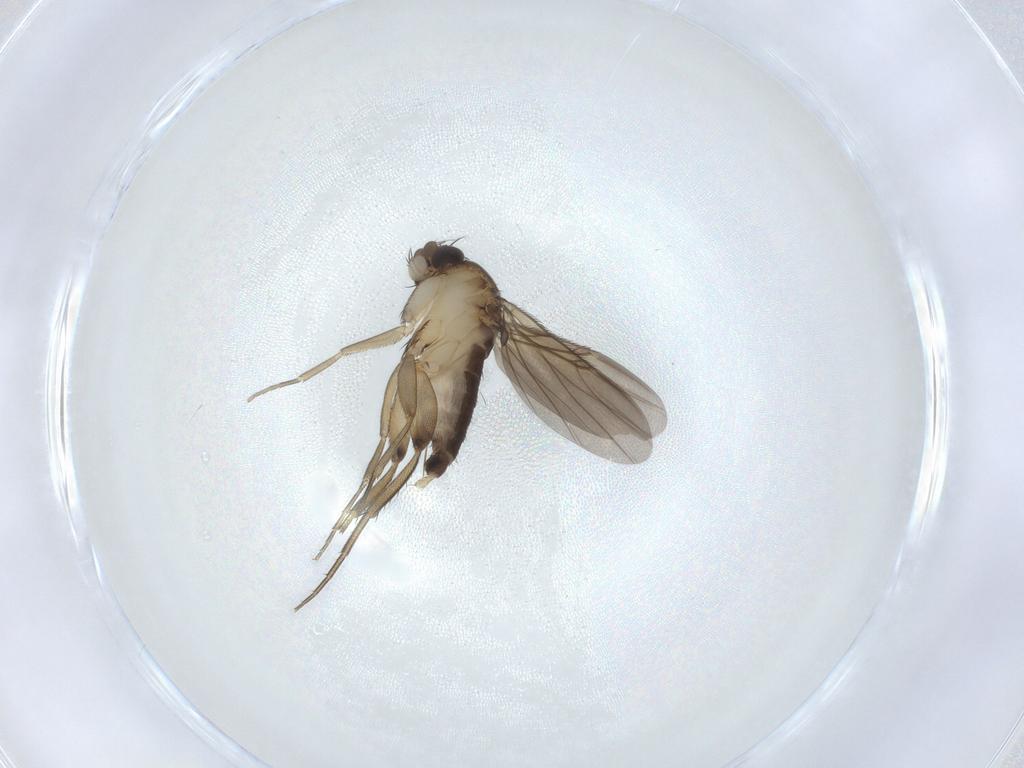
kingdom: Animalia
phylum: Arthropoda
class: Insecta
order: Diptera
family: Phoridae
